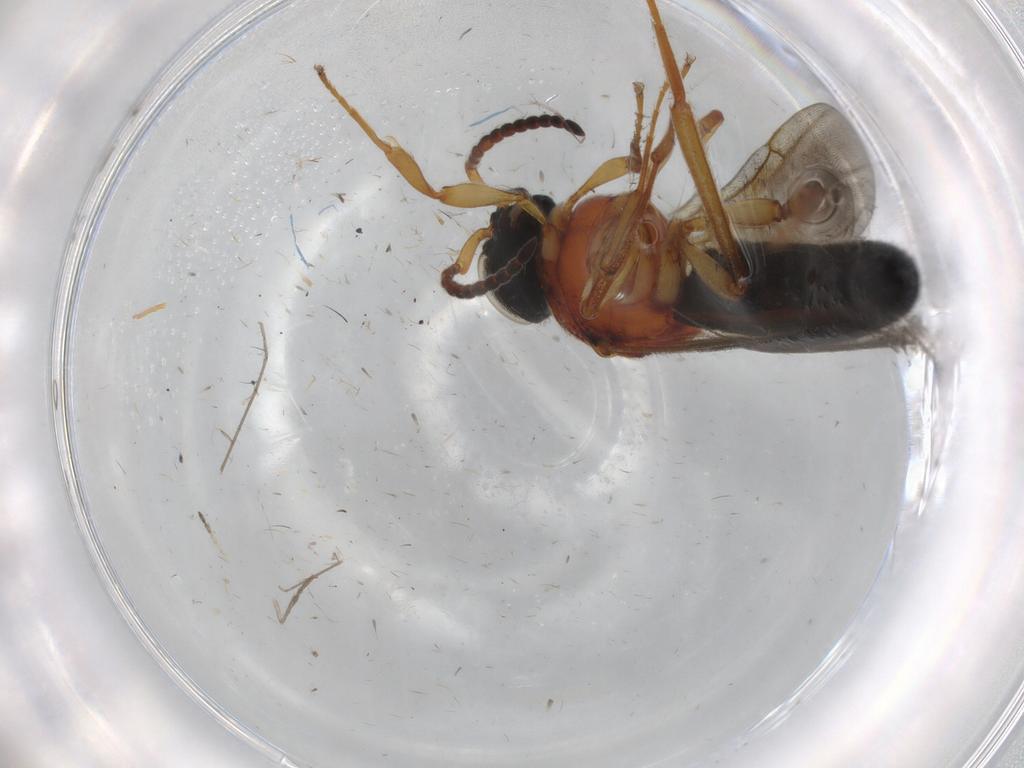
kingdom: Animalia
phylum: Arthropoda
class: Insecta
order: Hymenoptera
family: Scelionidae
